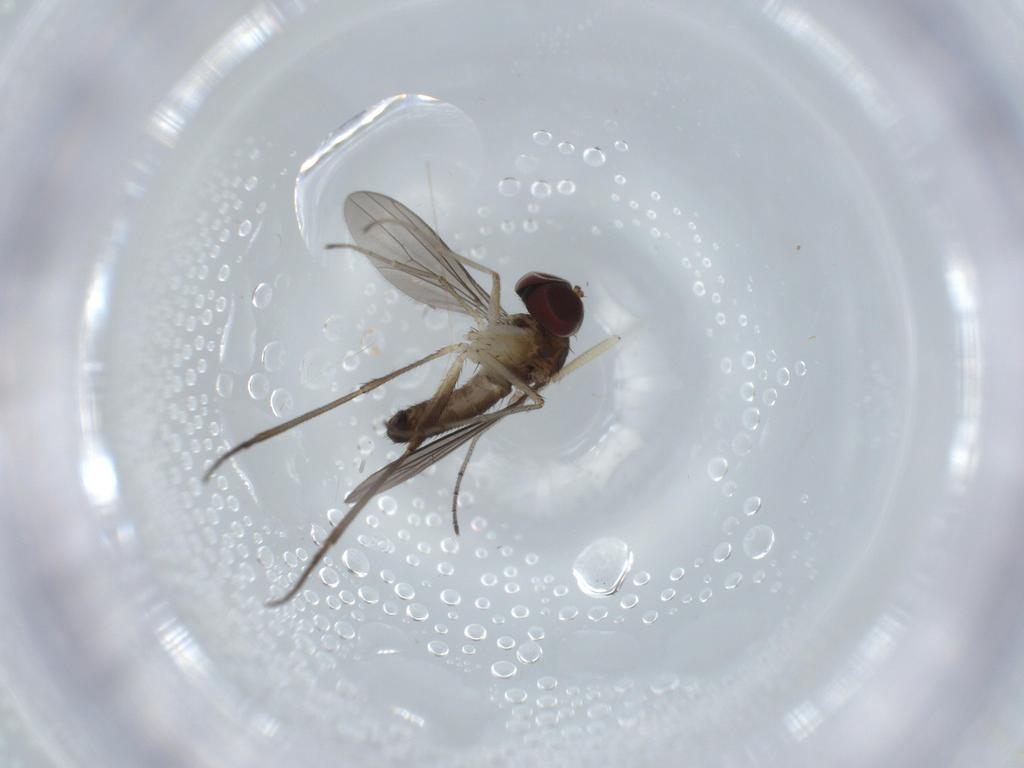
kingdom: Animalia
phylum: Arthropoda
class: Insecta
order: Diptera
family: Dolichopodidae
